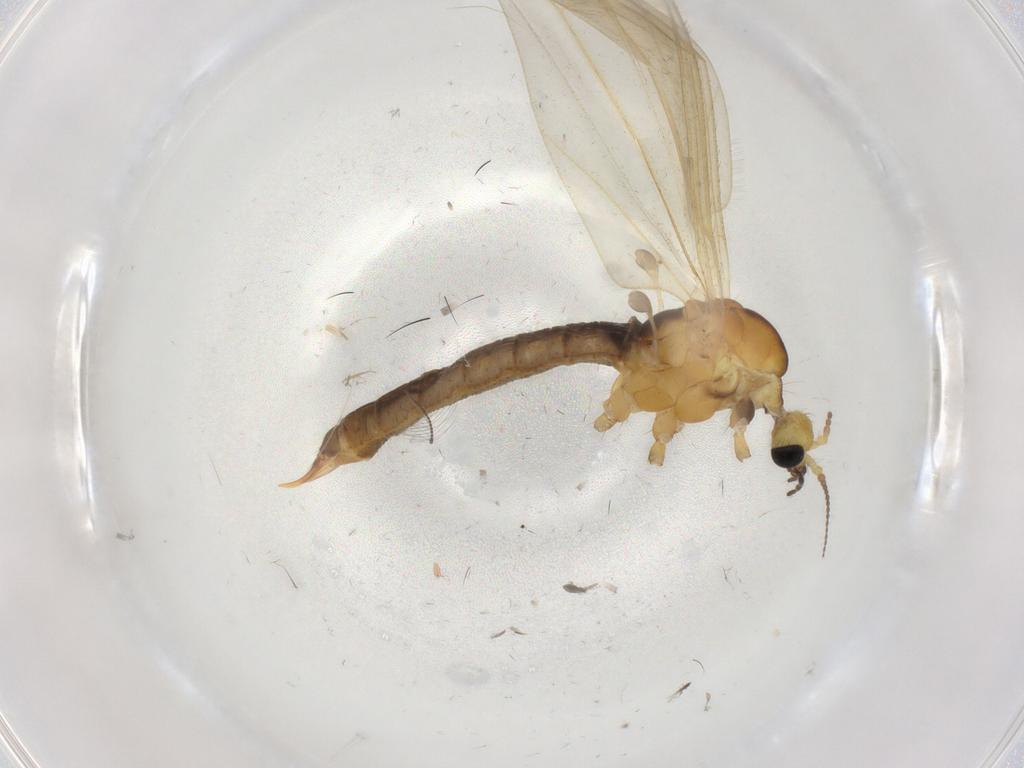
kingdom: Animalia
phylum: Arthropoda
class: Insecta
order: Diptera
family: Limoniidae
